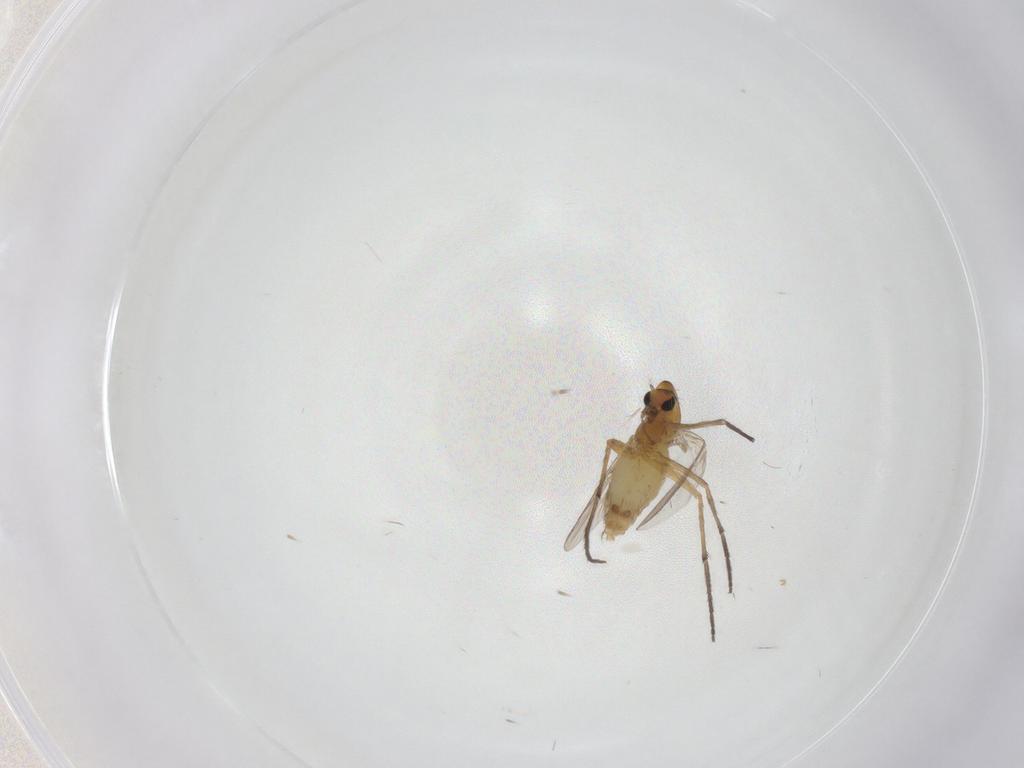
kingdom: Animalia
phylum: Arthropoda
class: Insecta
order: Diptera
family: Chironomidae
